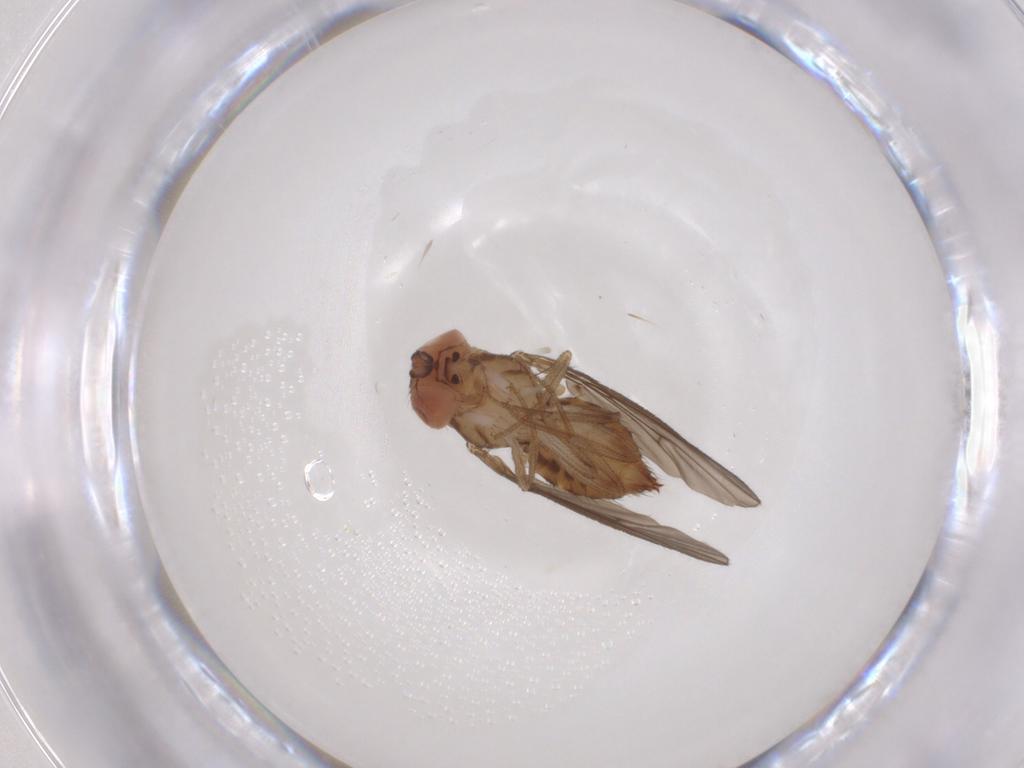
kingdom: Animalia
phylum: Arthropoda
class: Insecta
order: Diptera
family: Muscidae
